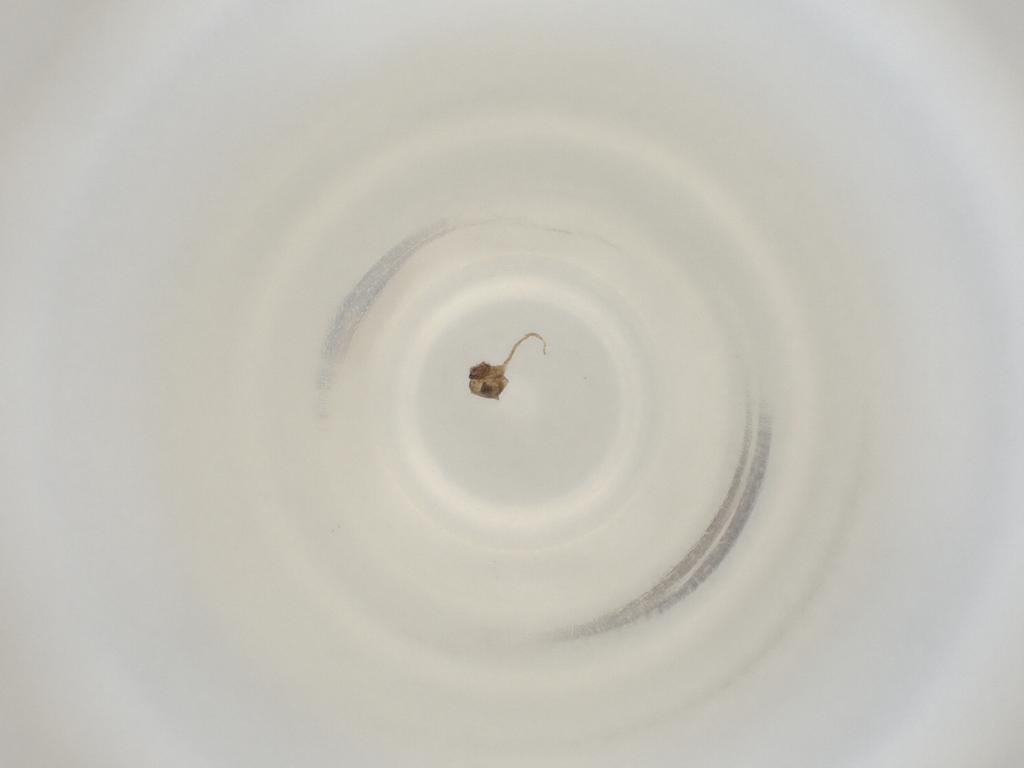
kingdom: Animalia
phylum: Arthropoda
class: Insecta
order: Diptera
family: Cecidomyiidae
